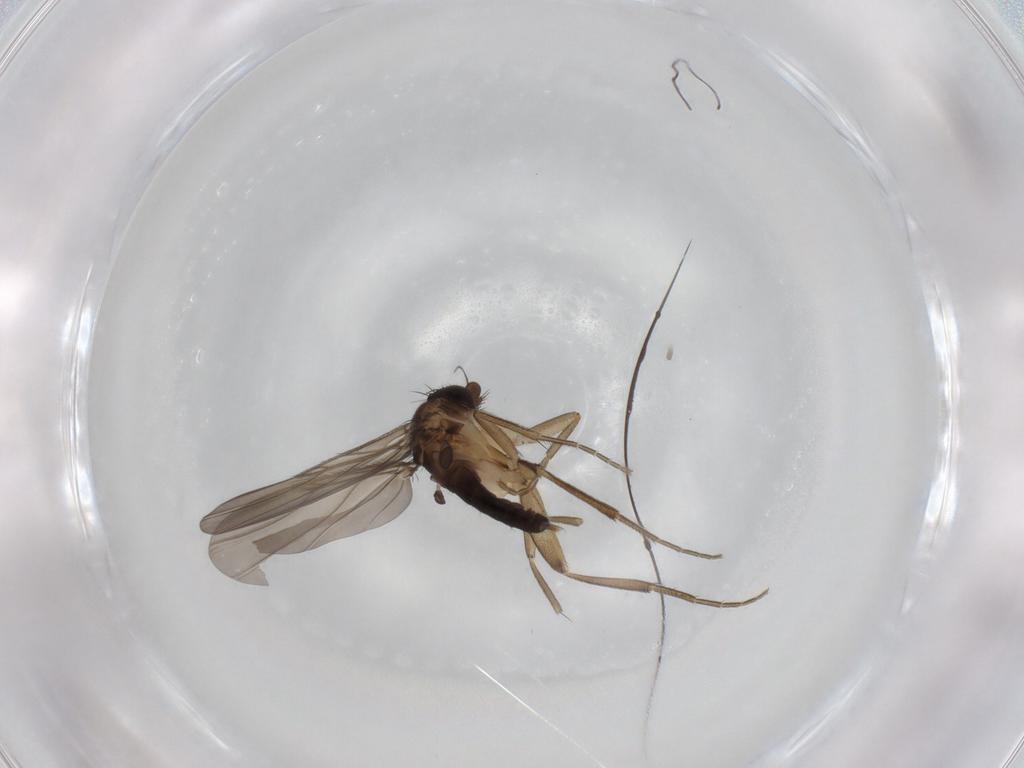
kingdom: Animalia
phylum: Arthropoda
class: Insecta
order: Diptera
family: Phoridae
